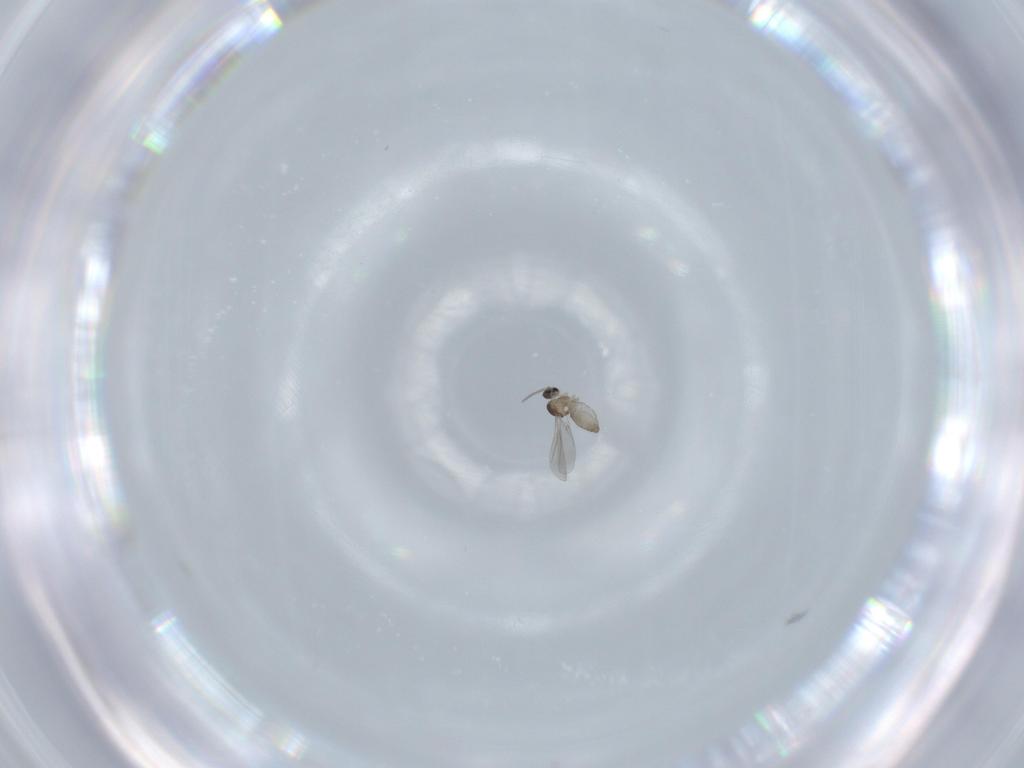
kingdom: Animalia
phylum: Arthropoda
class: Insecta
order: Diptera
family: Cecidomyiidae
